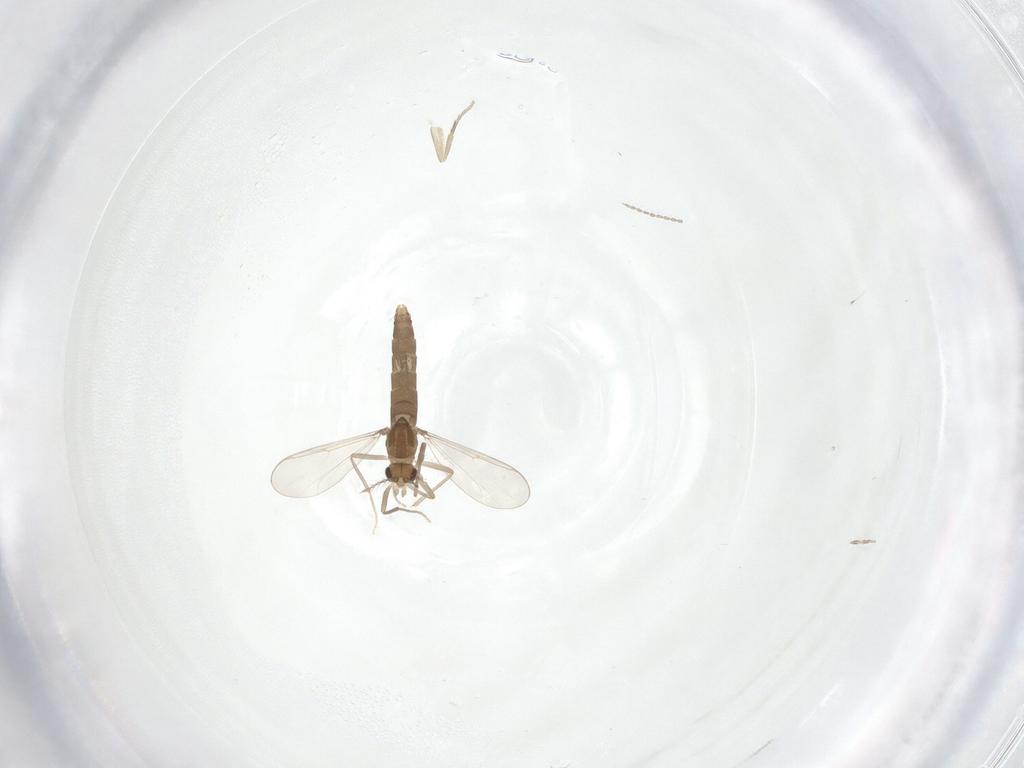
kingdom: Animalia
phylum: Arthropoda
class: Insecta
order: Diptera
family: Chironomidae
